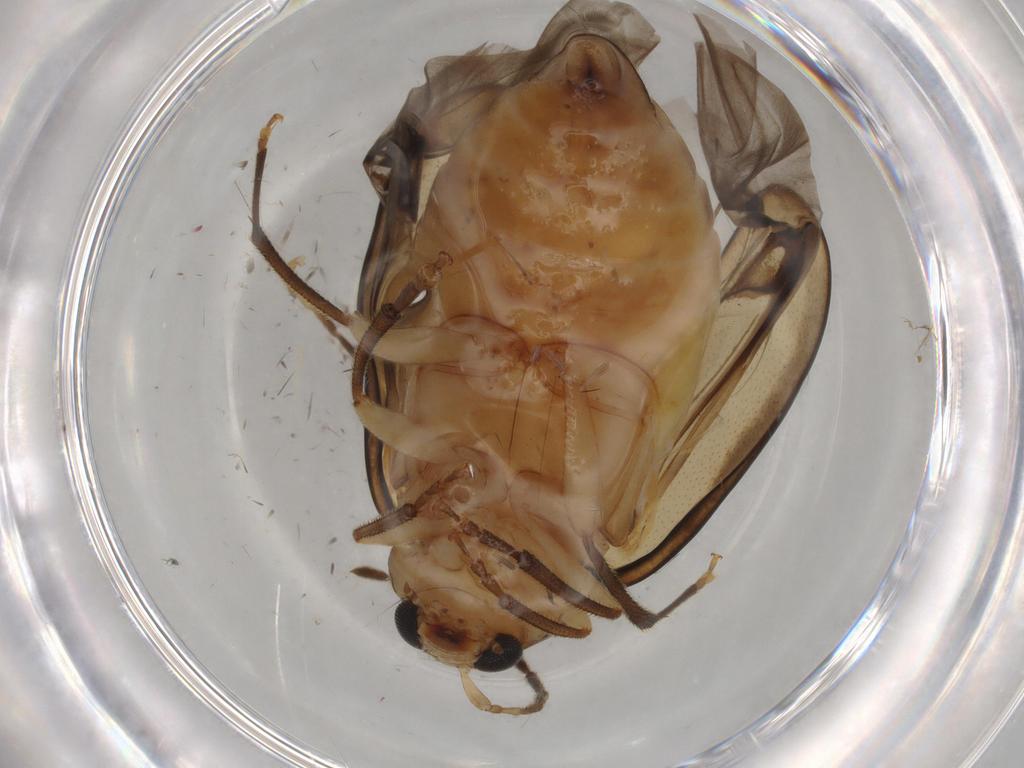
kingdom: Animalia
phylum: Arthropoda
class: Insecta
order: Coleoptera
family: Chrysomelidae
